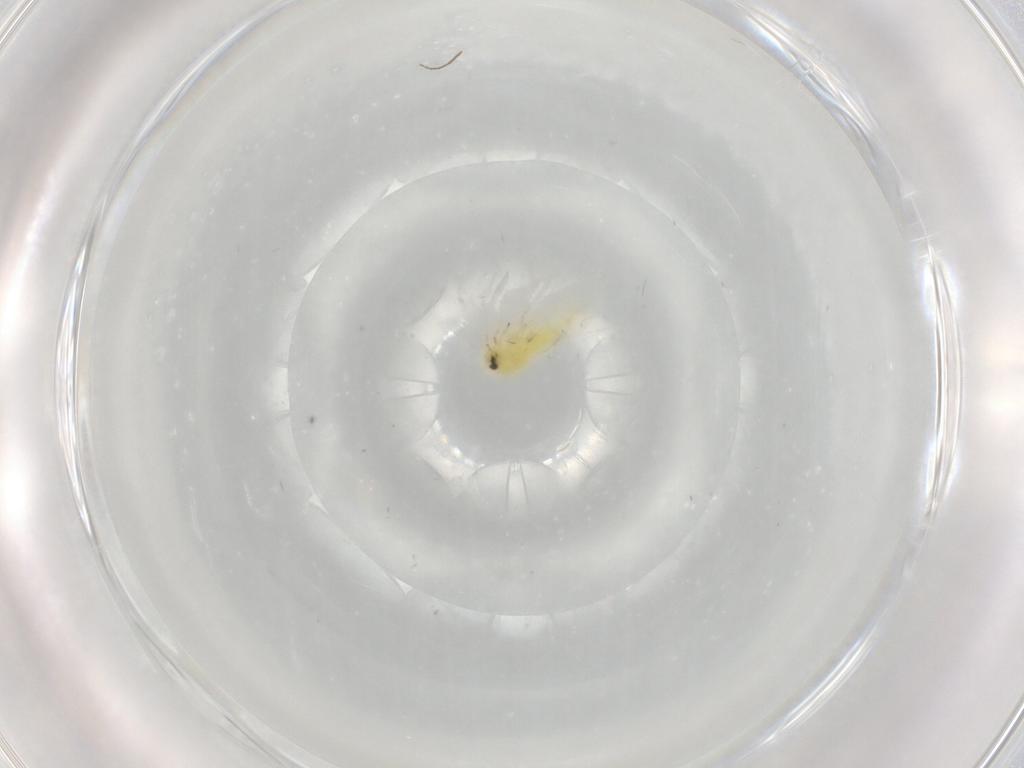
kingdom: Animalia
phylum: Arthropoda
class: Insecta
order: Hemiptera
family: Aleyrodidae
